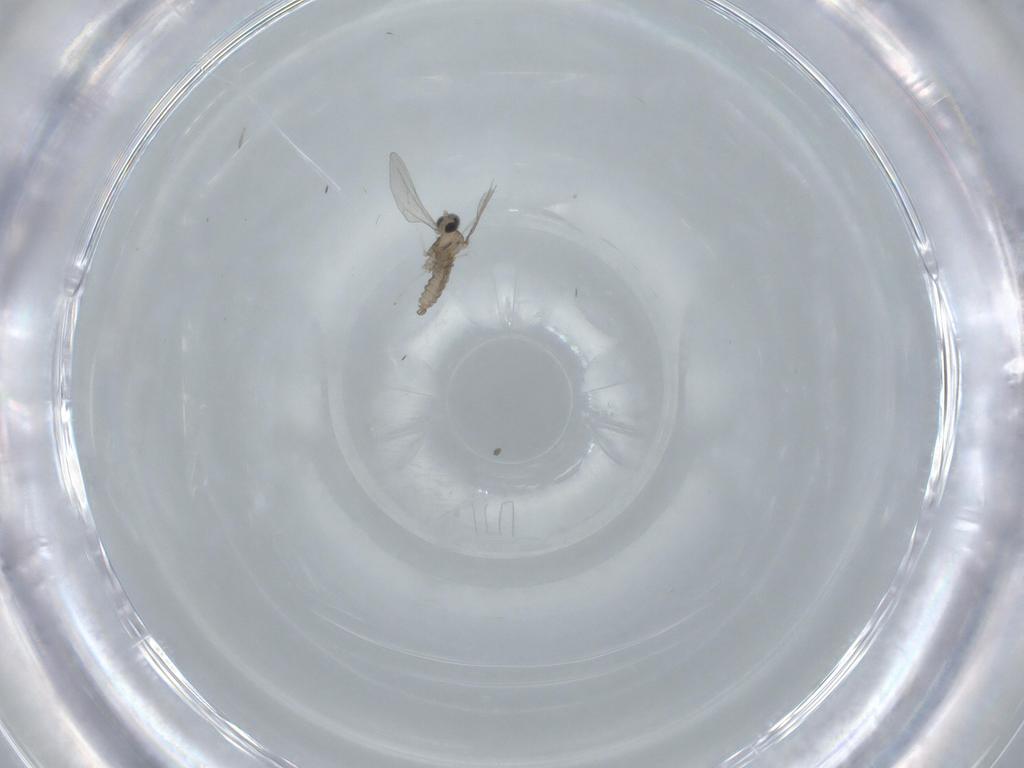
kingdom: Animalia
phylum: Arthropoda
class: Insecta
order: Diptera
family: Cecidomyiidae
